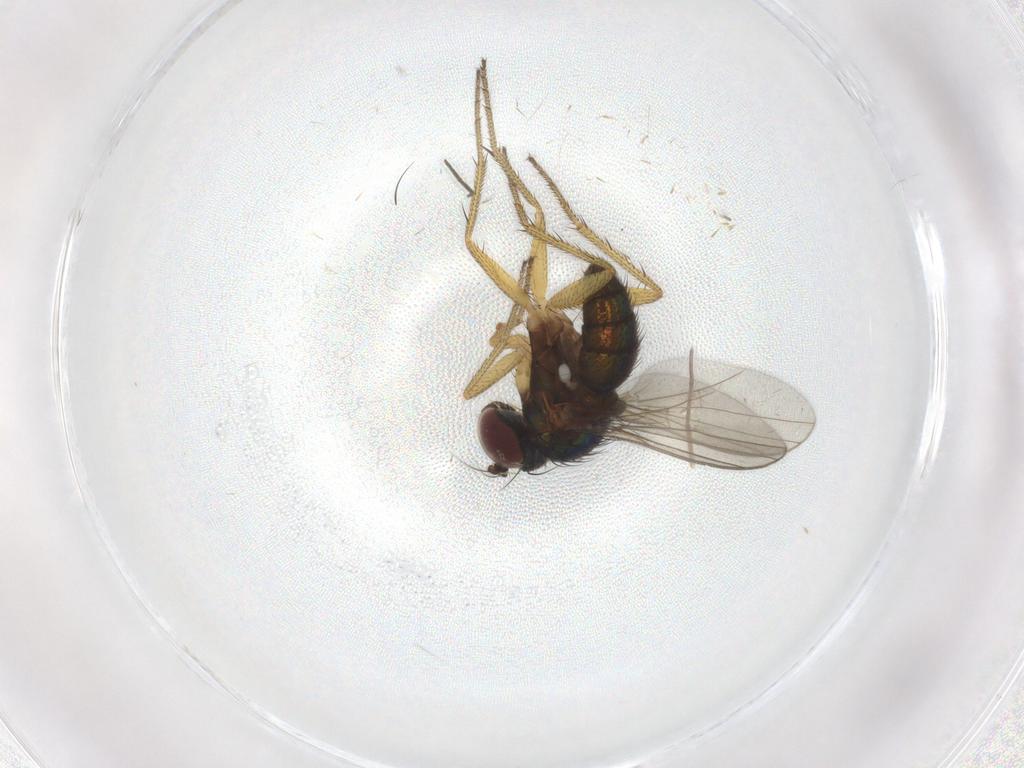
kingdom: Animalia
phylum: Arthropoda
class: Insecta
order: Diptera
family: Chironomidae
